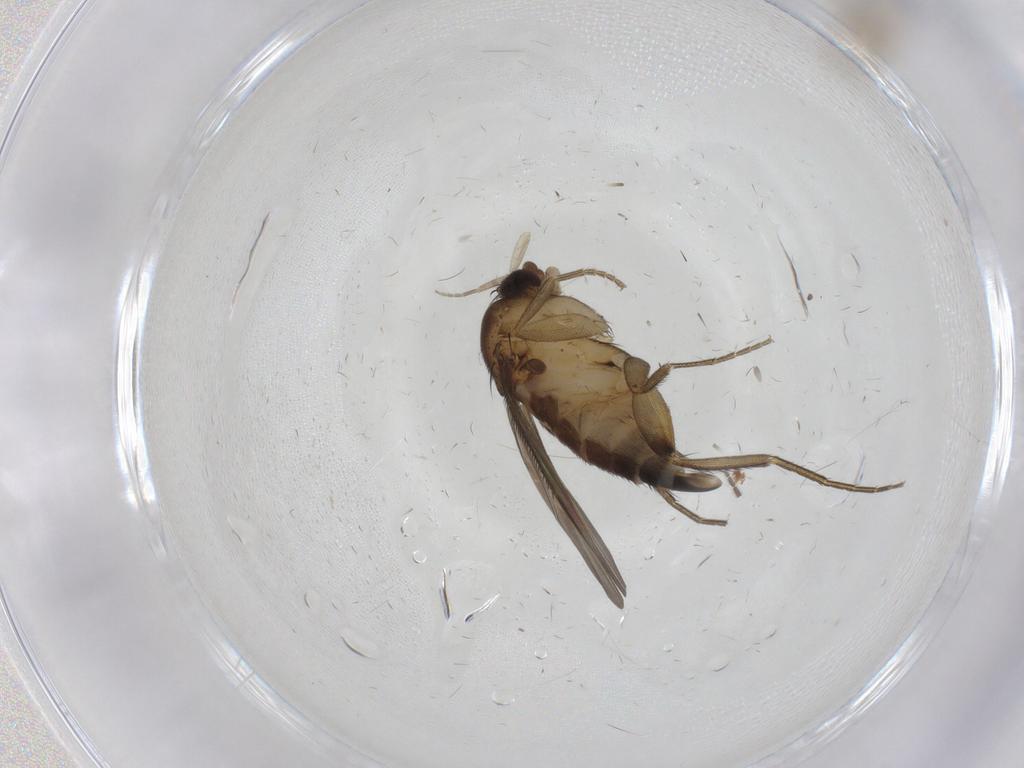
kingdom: Animalia
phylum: Arthropoda
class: Insecta
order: Diptera
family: Phoridae
